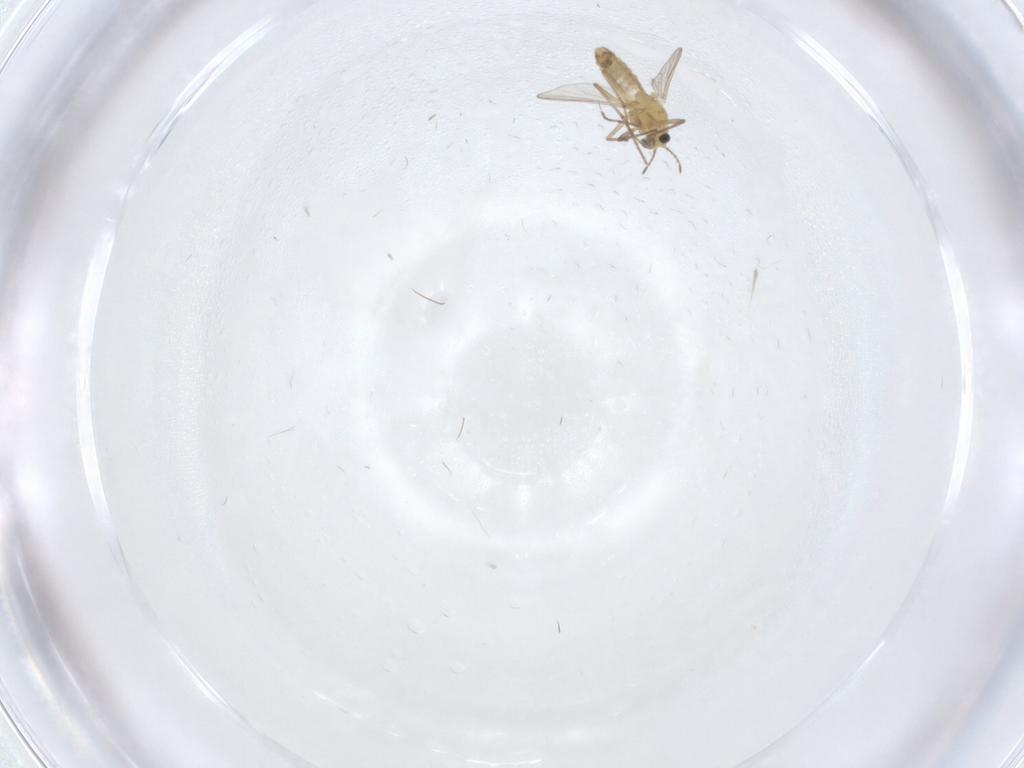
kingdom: Animalia
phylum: Arthropoda
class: Insecta
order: Diptera
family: Chironomidae
